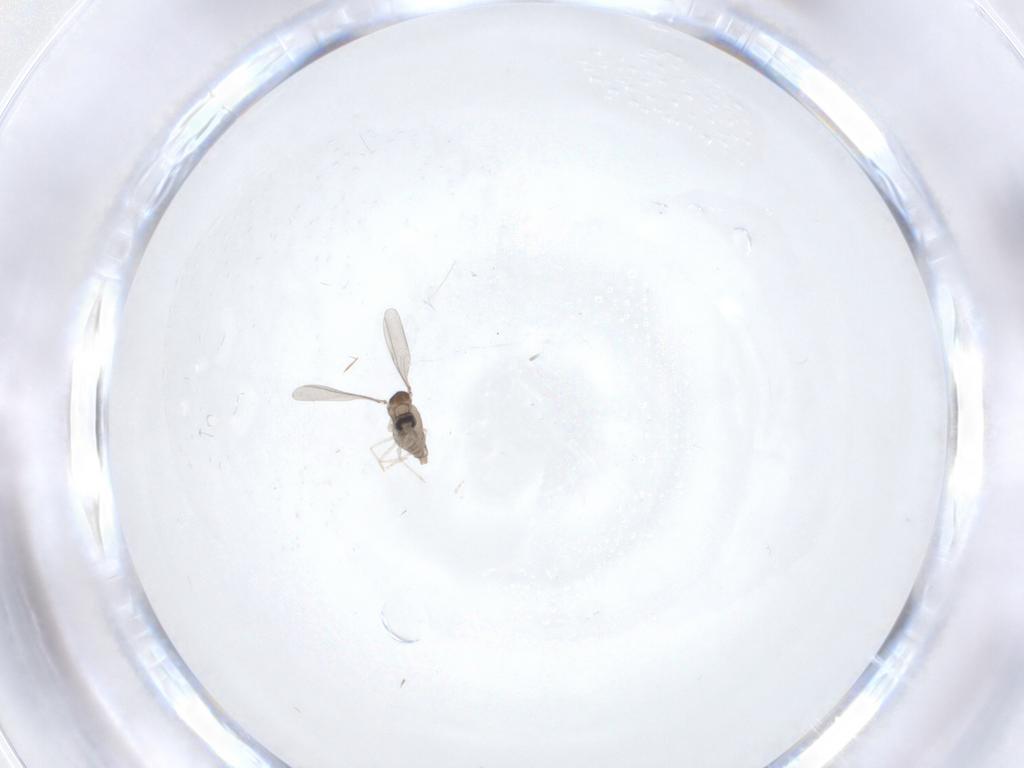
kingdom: Animalia
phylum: Arthropoda
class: Insecta
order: Diptera
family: Cecidomyiidae
